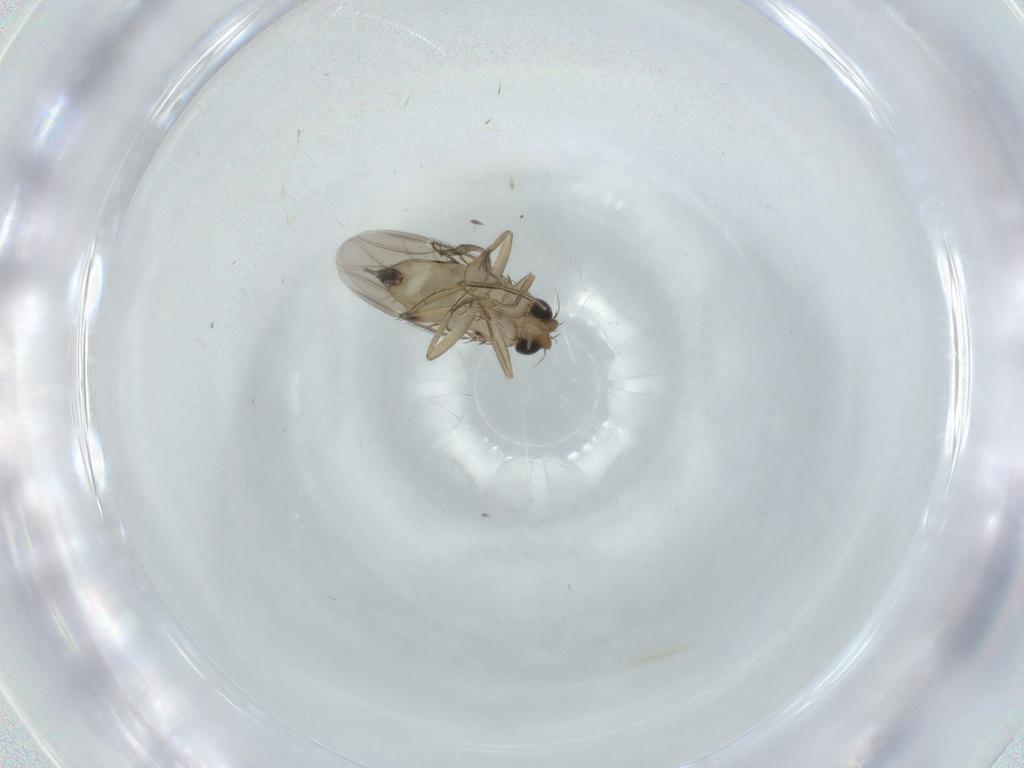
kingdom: Animalia
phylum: Arthropoda
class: Insecta
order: Diptera
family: Phoridae
